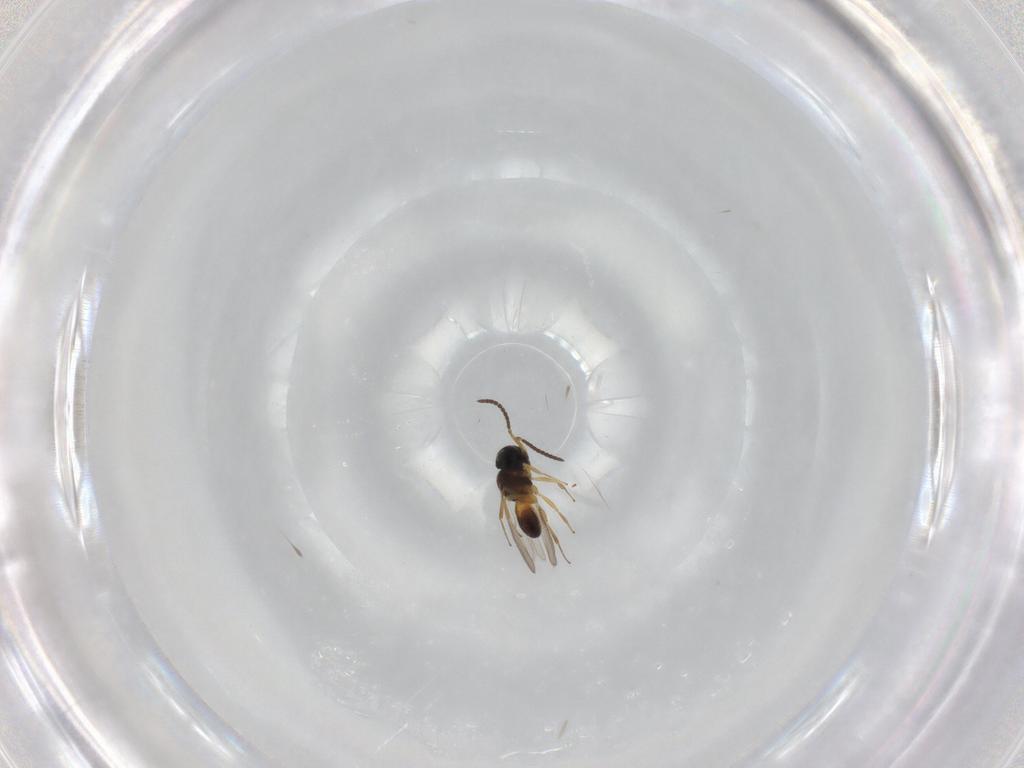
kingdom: Animalia
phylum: Arthropoda
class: Insecta
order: Hymenoptera
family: Scelionidae
